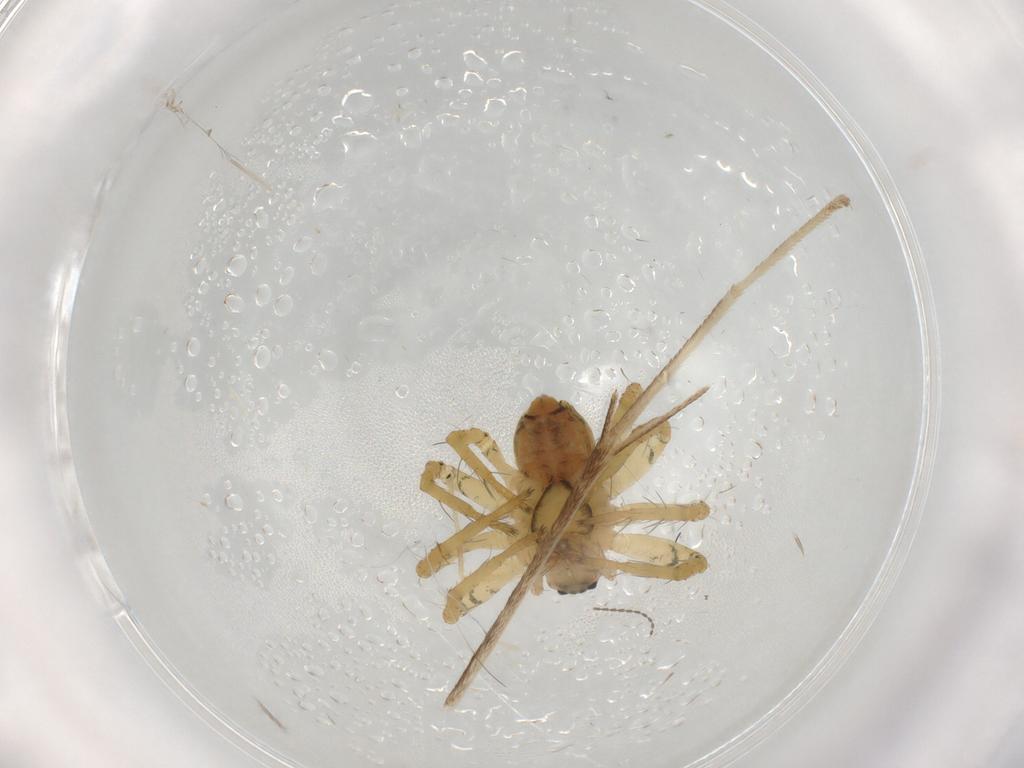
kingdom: Animalia
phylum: Arthropoda
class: Arachnida
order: Araneae
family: Pisauridae
